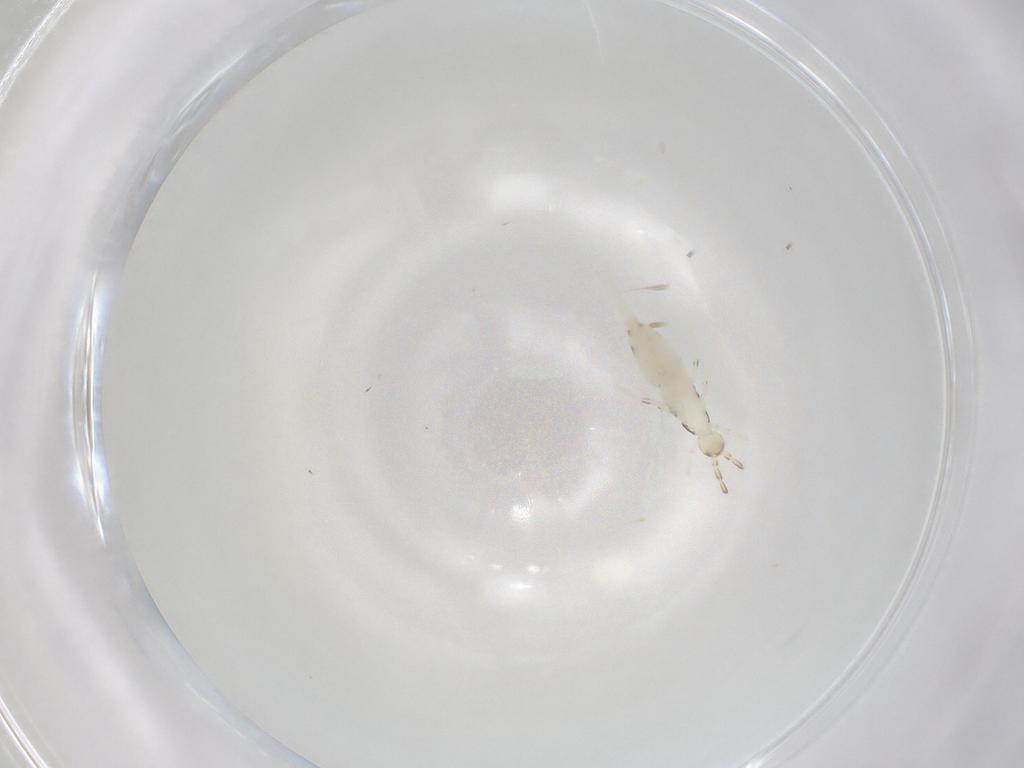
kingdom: Animalia
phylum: Arthropoda
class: Collembola
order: Entomobryomorpha
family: Entomobryidae
